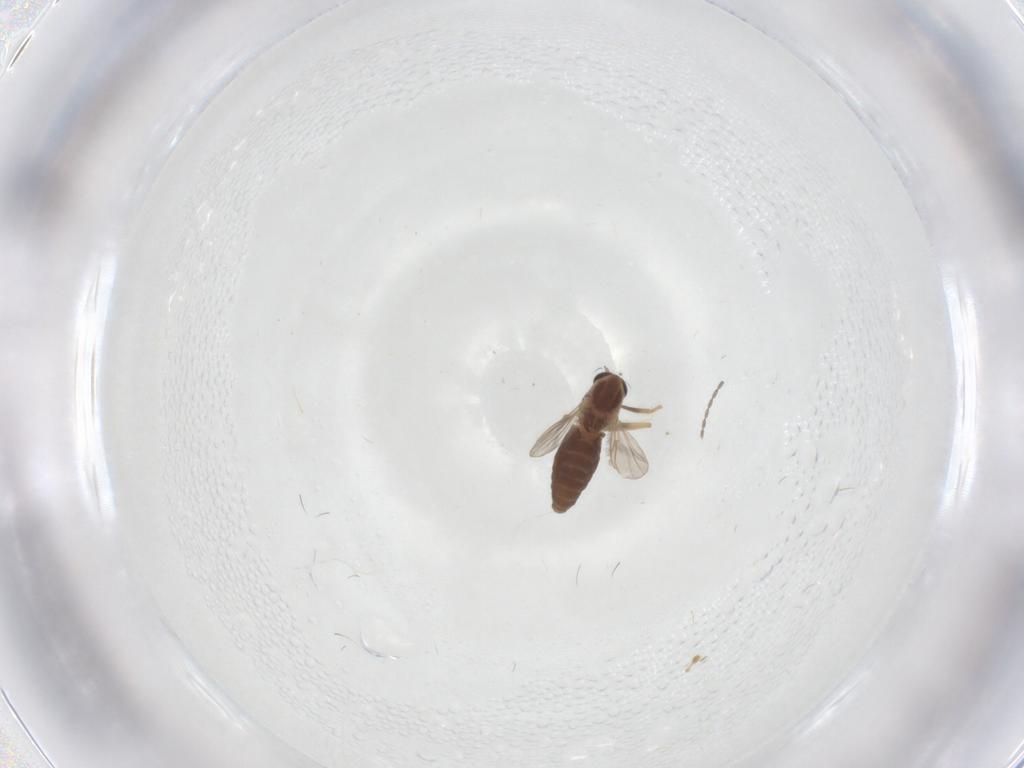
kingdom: Animalia
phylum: Arthropoda
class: Insecta
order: Diptera
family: Chironomidae
